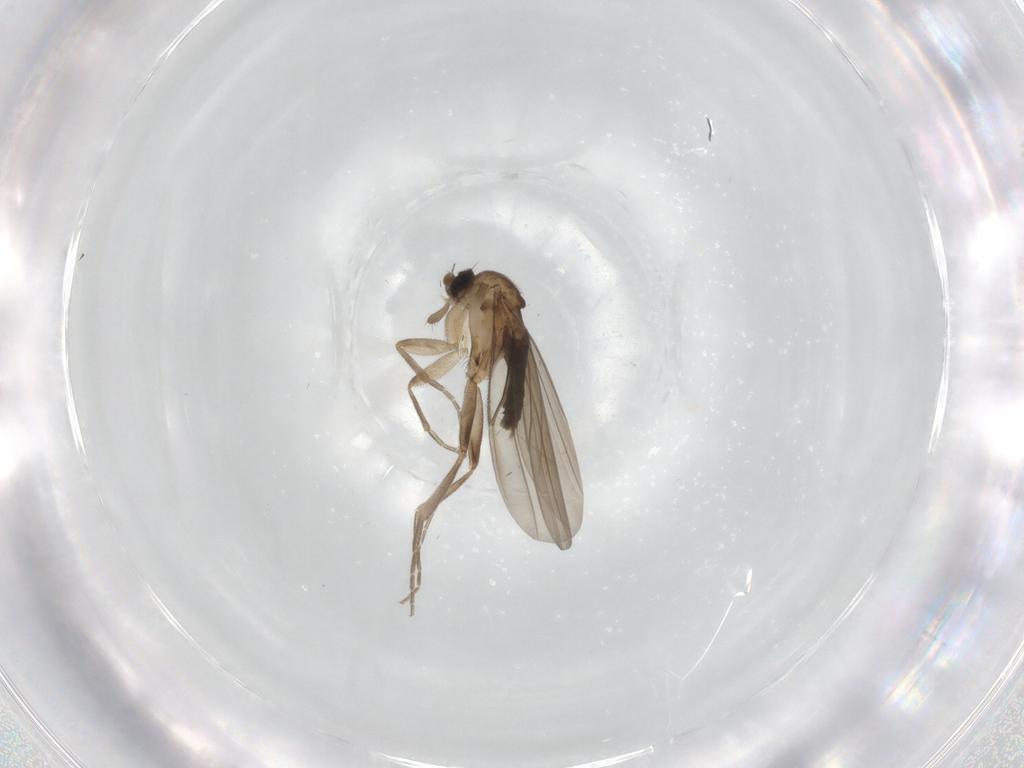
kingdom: Animalia
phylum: Arthropoda
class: Insecta
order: Diptera
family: Phoridae
